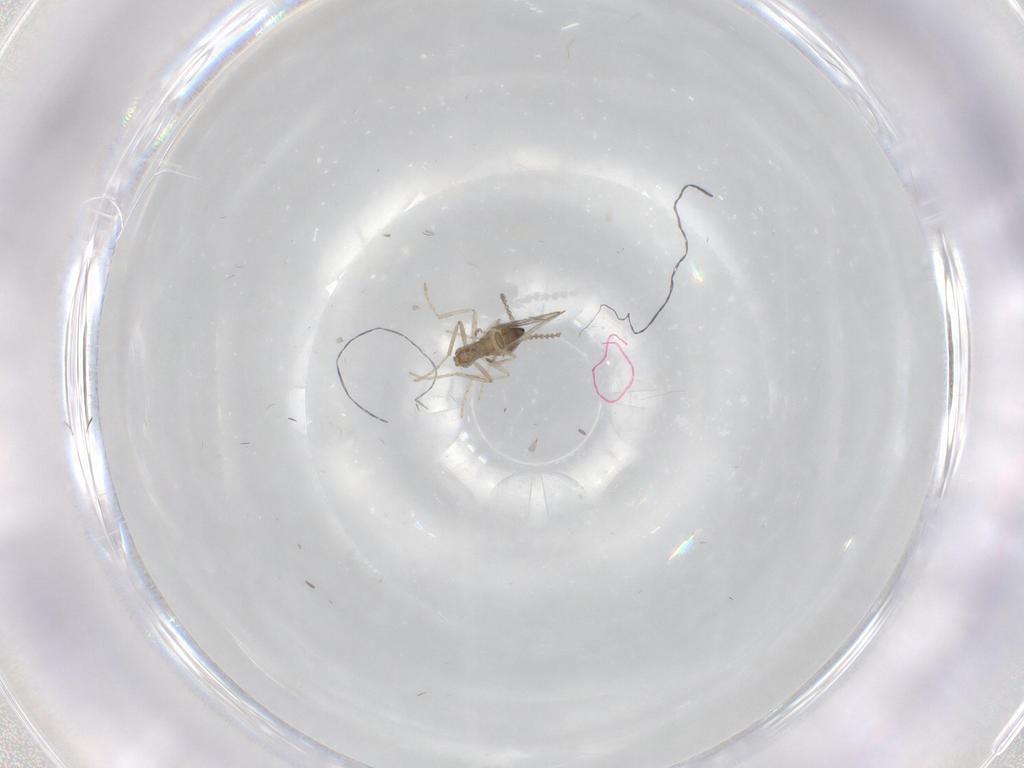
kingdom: Animalia
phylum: Arthropoda
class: Insecta
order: Diptera
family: Cecidomyiidae
